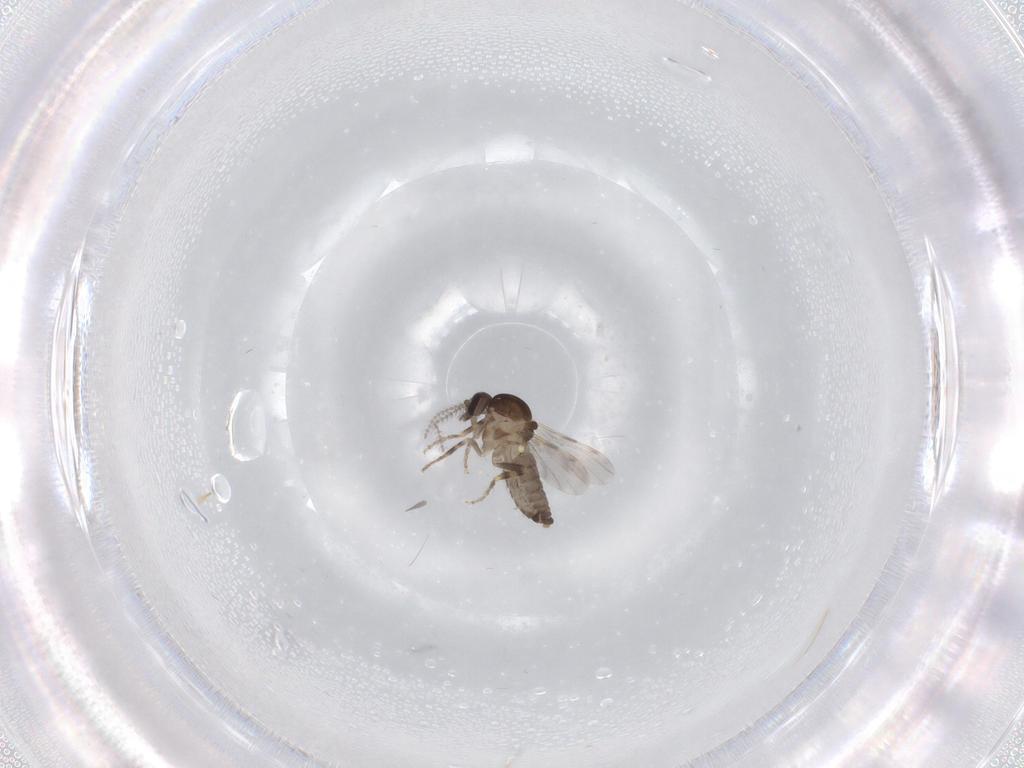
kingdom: Animalia
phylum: Arthropoda
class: Insecta
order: Diptera
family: Ceratopogonidae
